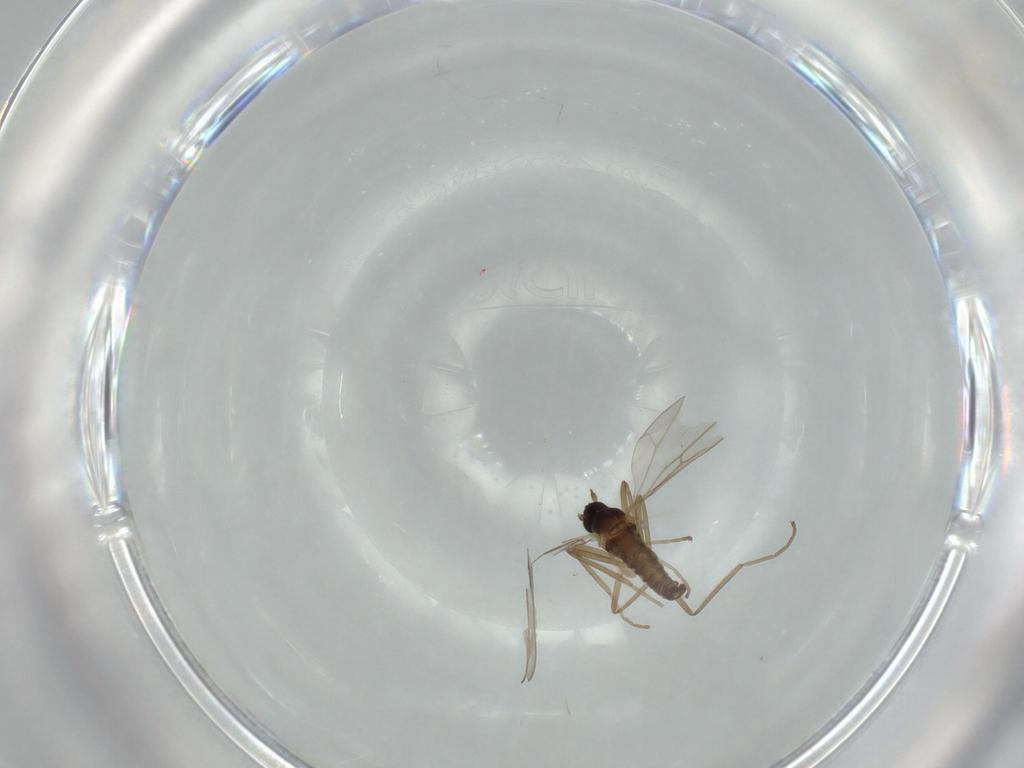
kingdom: Animalia
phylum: Arthropoda
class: Insecta
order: Diptera
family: Cecidomyiidae
